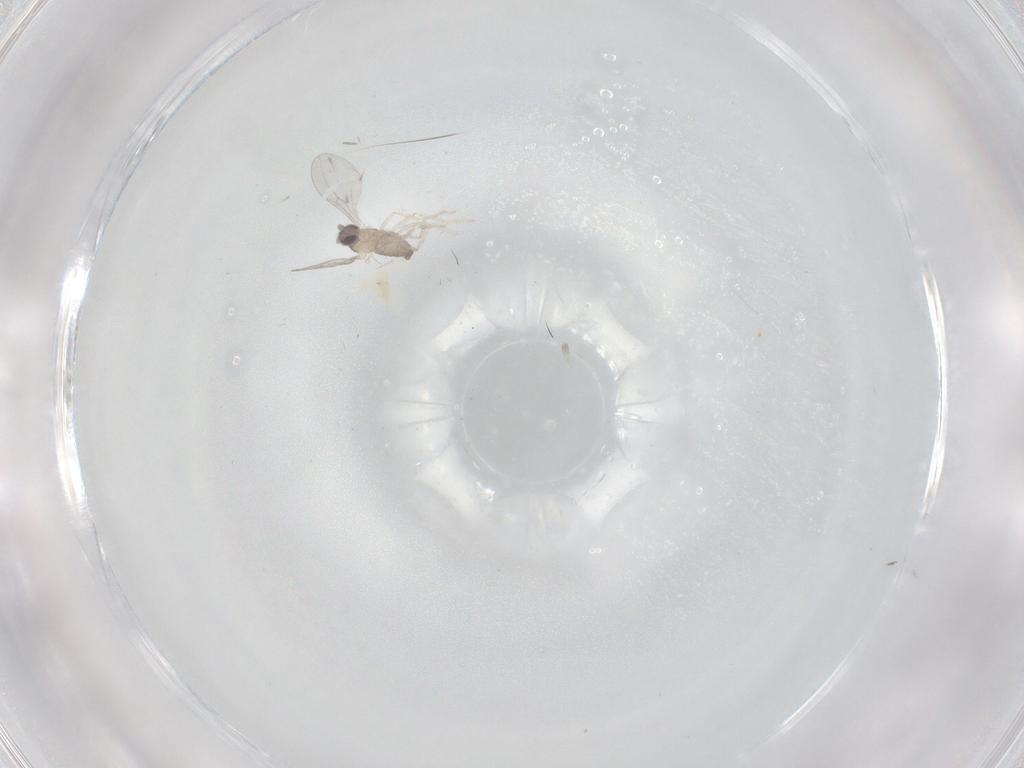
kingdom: Animalia
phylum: Arthropoda
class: Insecta
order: Diptera
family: Cecidomyiidae
